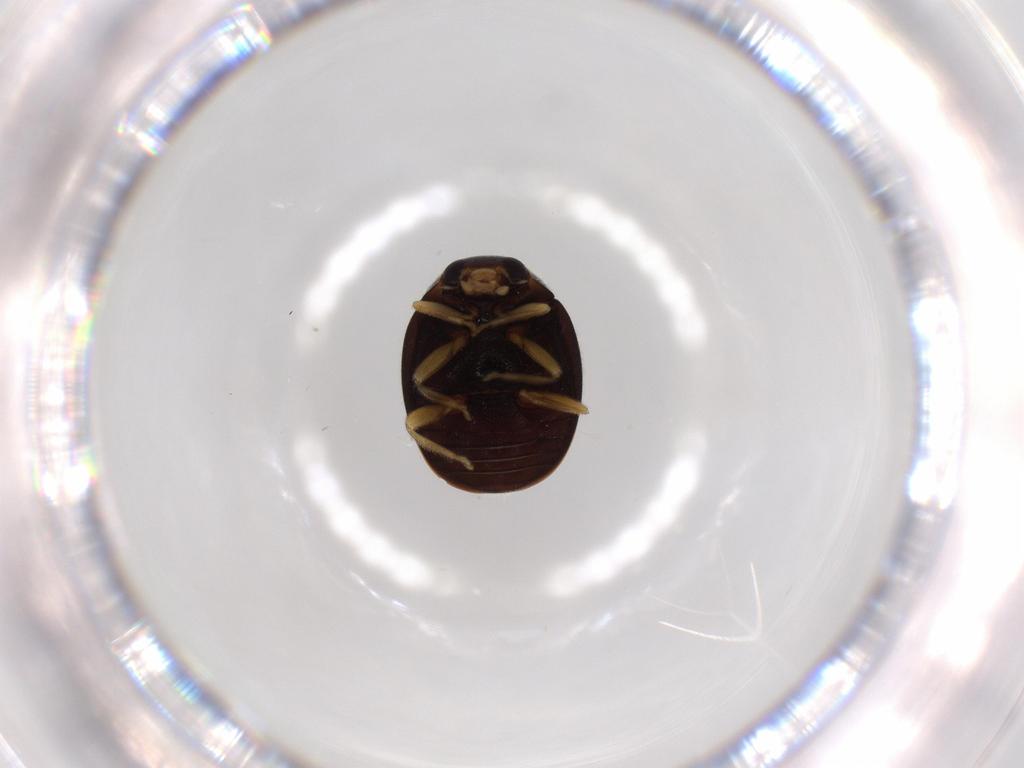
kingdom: Animalia
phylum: Arthropoda
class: Insecta
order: Coleoptera
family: Coccinellidae
